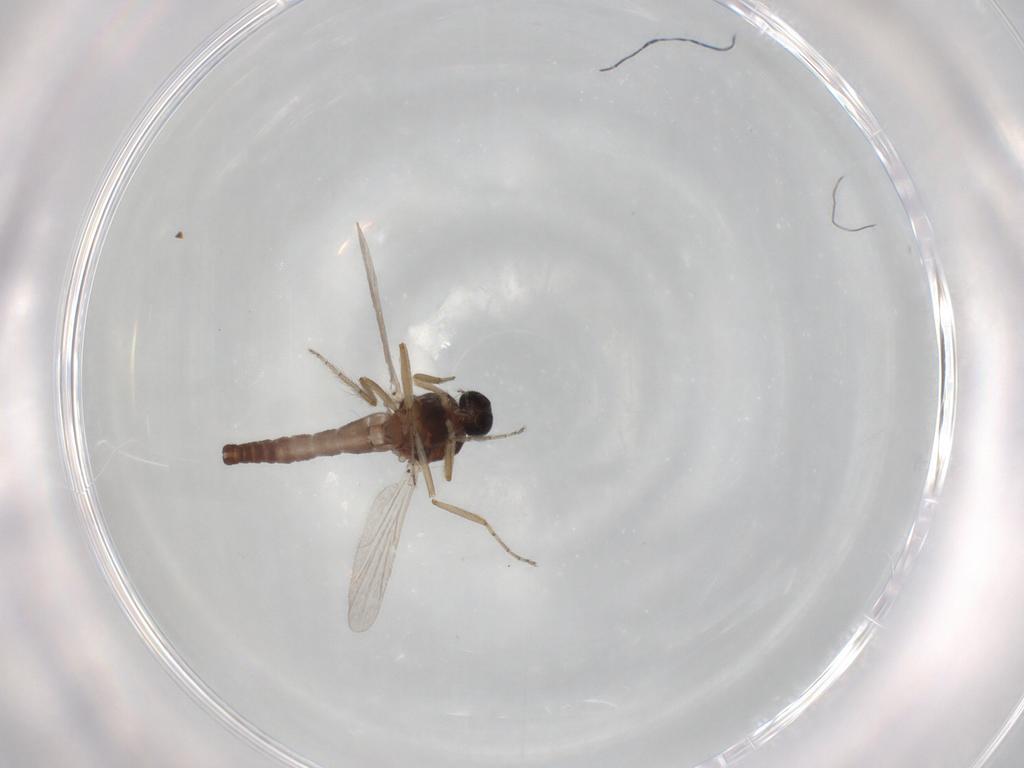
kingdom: Animalia
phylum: Arthropoda
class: Insecta
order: Diptera
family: Ceratopogonidae
